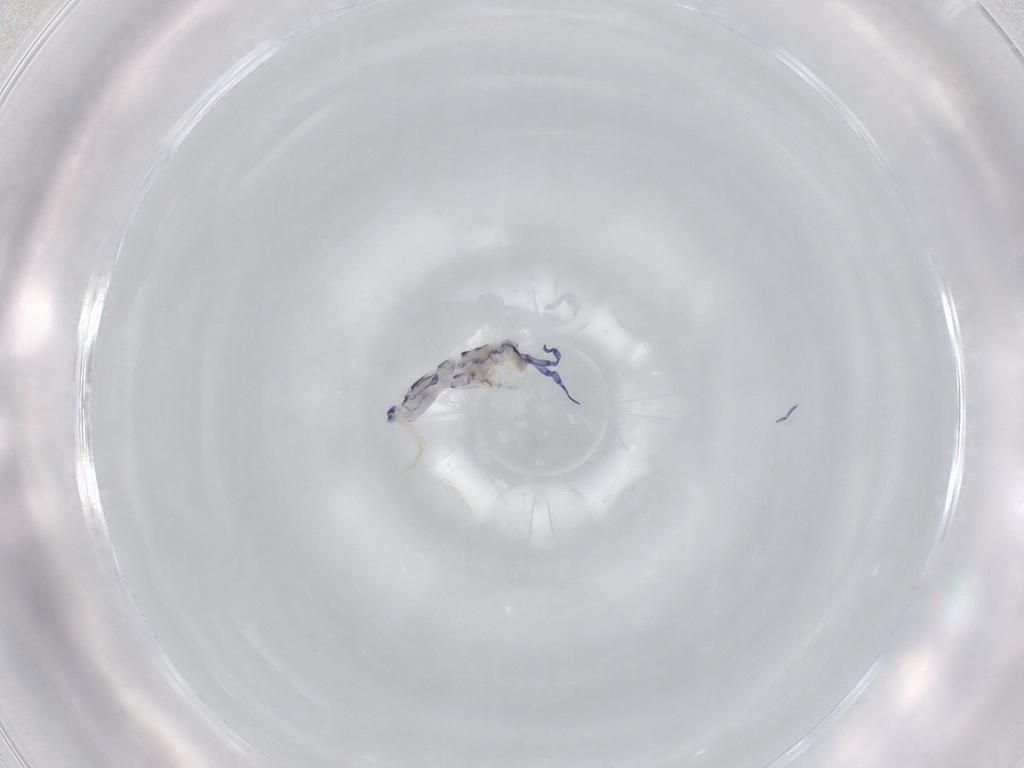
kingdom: Animalia
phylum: Arthropoda
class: Collembola
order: Entomobryomorpha
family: Entomobryidae
